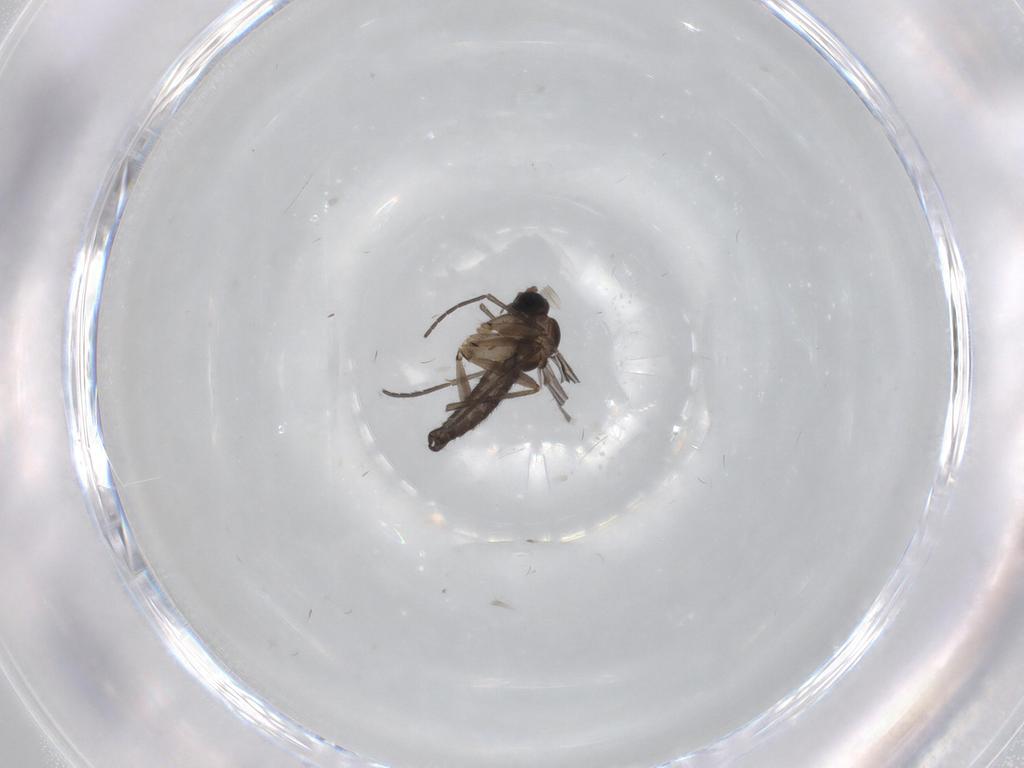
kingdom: Animalia
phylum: Arthropoda
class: Insecta
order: Diptera
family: Sciaridae
